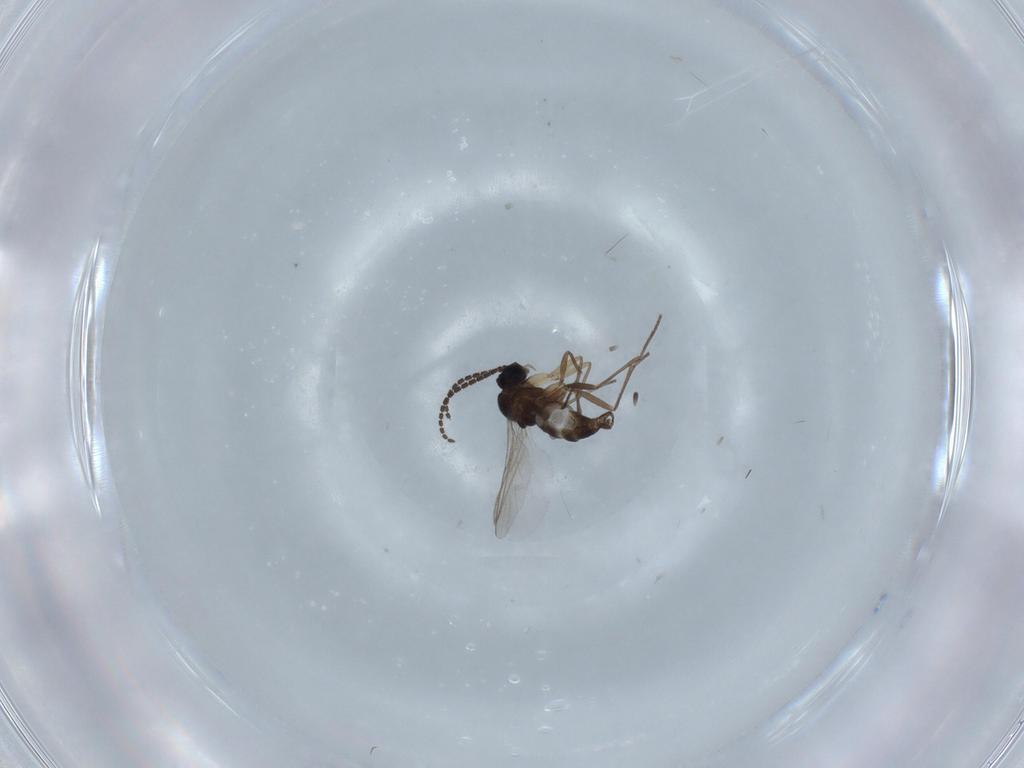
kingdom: Animalia
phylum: Arthropoda
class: Insecta
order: Diptera
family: Sciaridae
